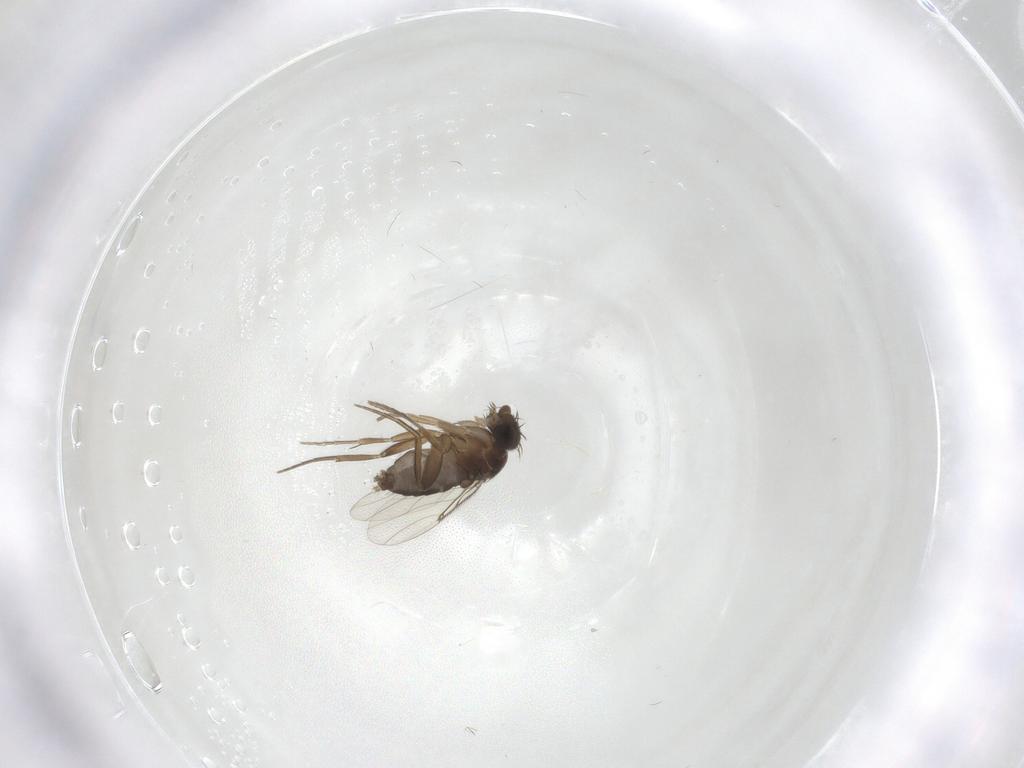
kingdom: Animalia
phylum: Arthropoda
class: Insecta
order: Diptera
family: Phoridae
